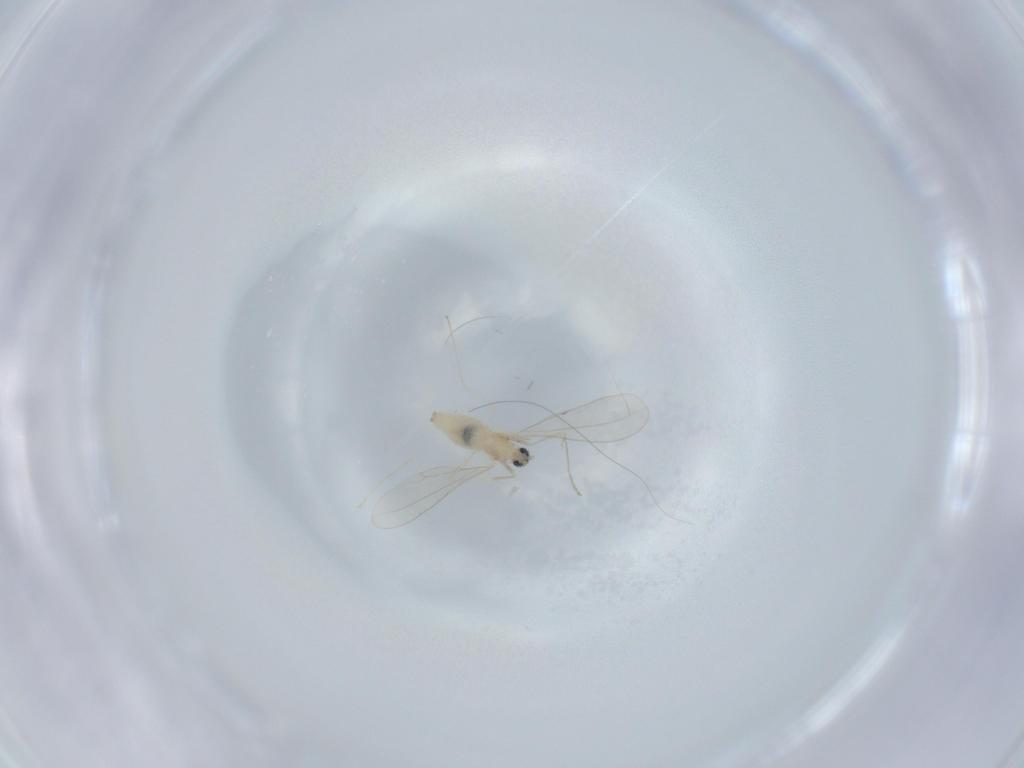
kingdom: Animalia
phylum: Arthropoda
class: Insecta
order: Diptera
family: Cecidomyiidae
